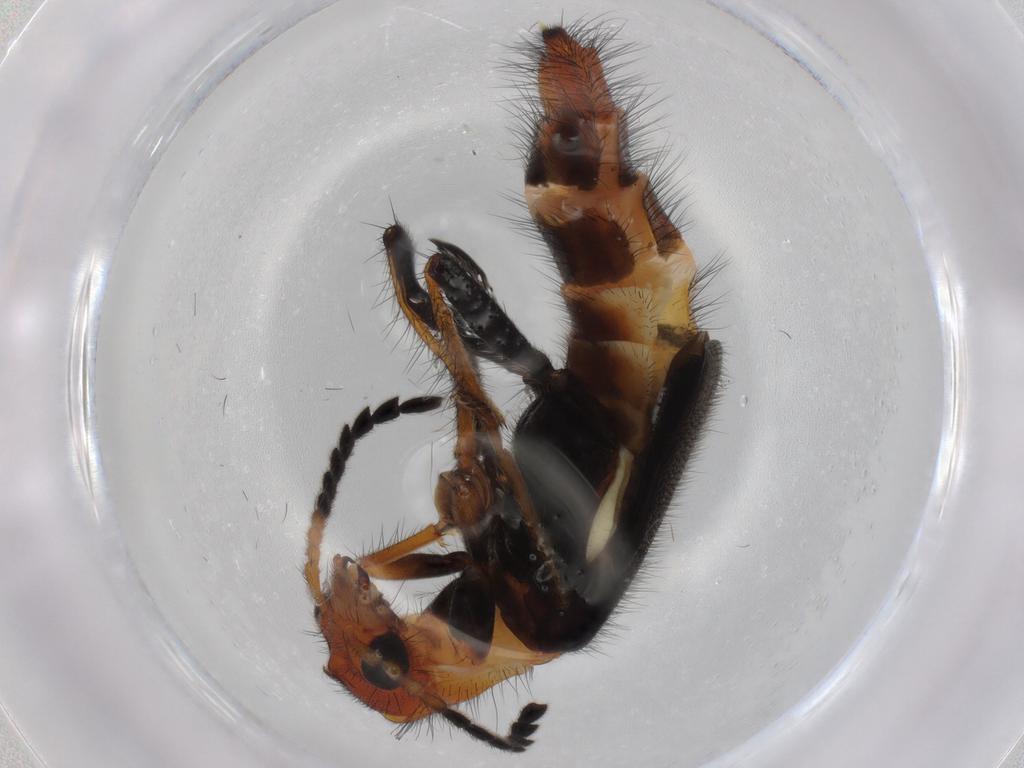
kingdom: Animalia
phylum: Arthropoda
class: Insecta
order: Coleoptera
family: Melyridae
